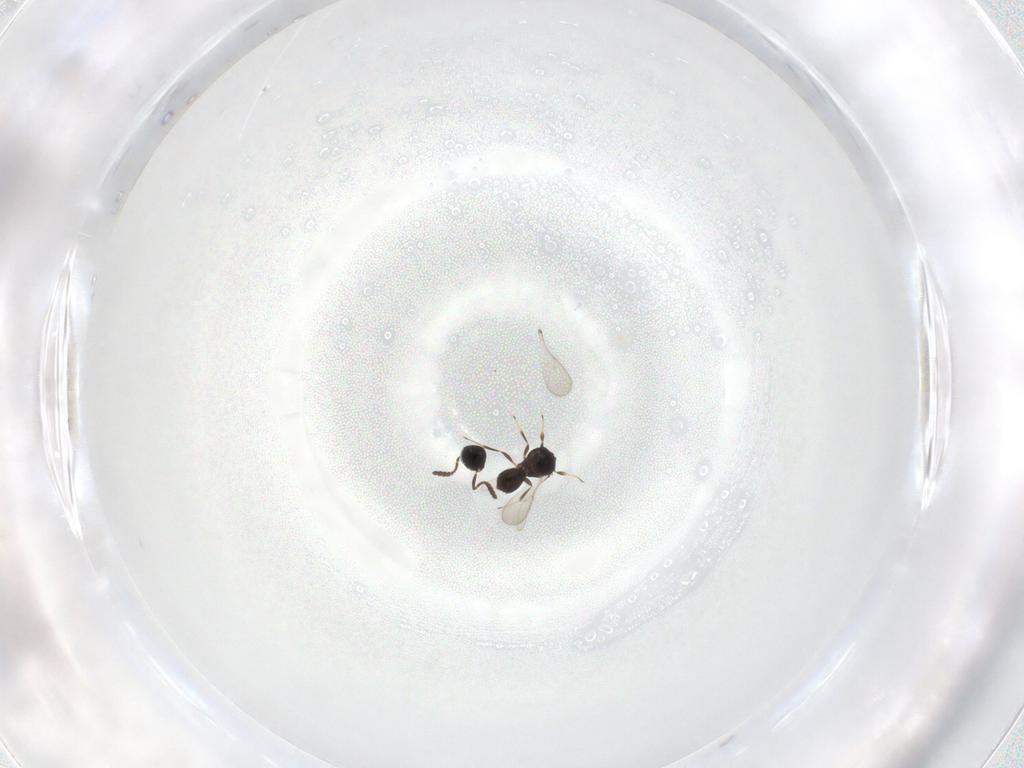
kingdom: Animalia
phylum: Arthropoda
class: Insecta
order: Hymenoptera
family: Scelionidae
